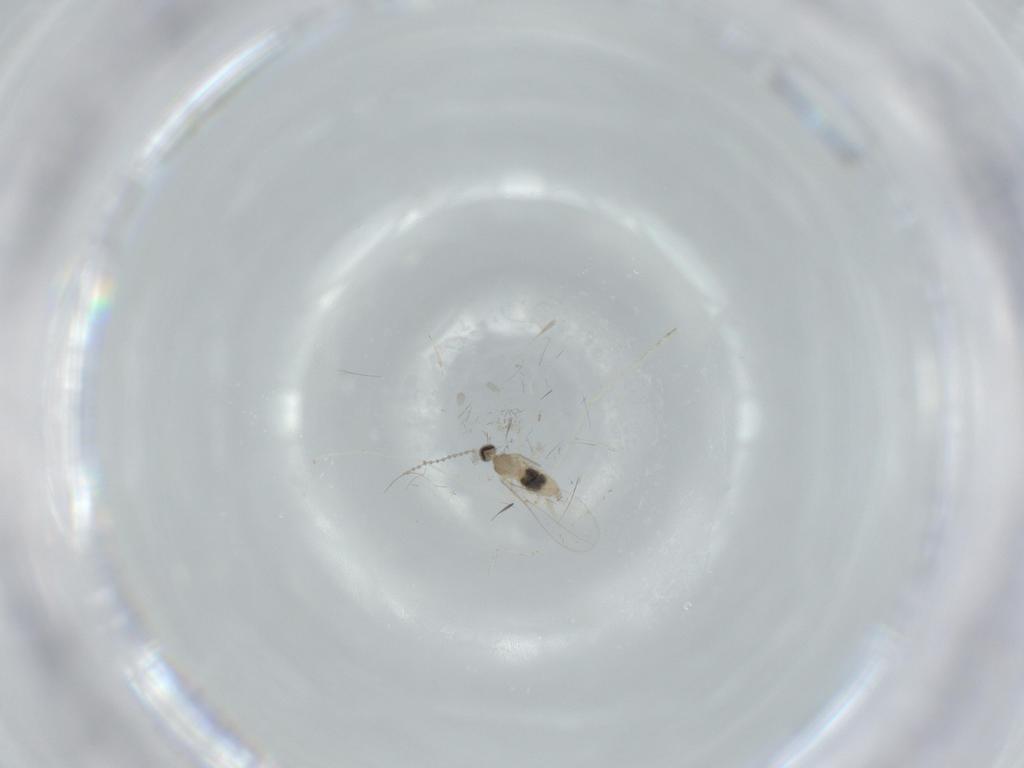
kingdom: Animalia
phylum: Arthropoda
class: Insecta
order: Diptera
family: Cecidomyiidae
